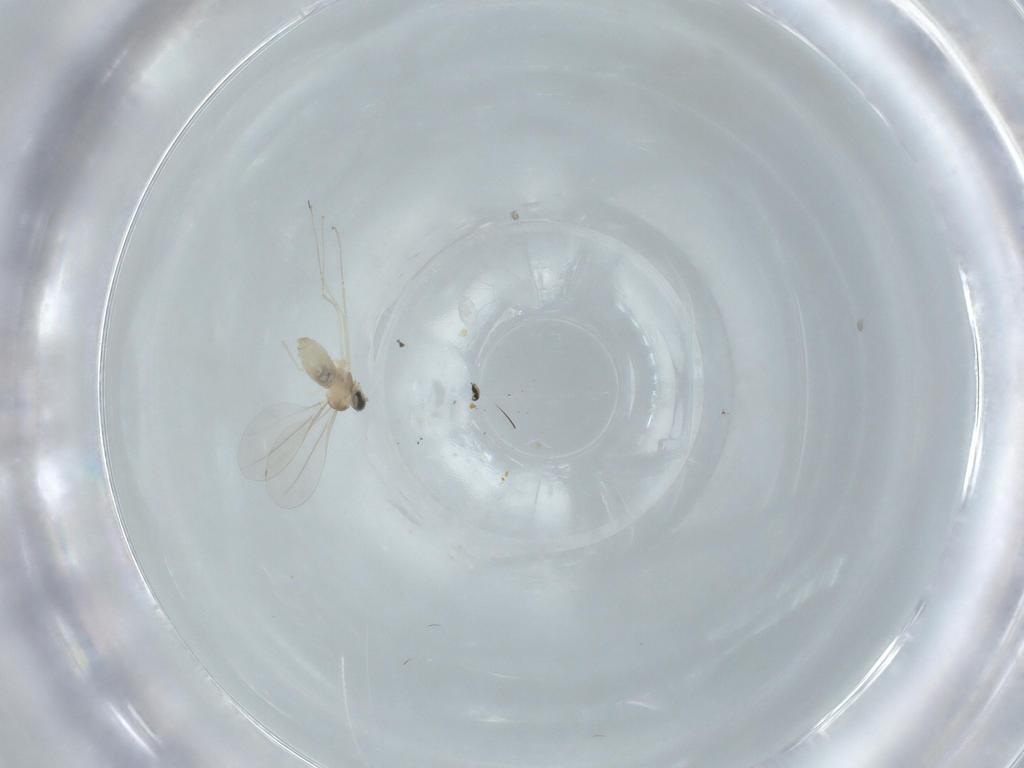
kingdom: Animalia
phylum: Arthropoda
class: Insecta
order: Diptera
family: Cecidomyiidae
